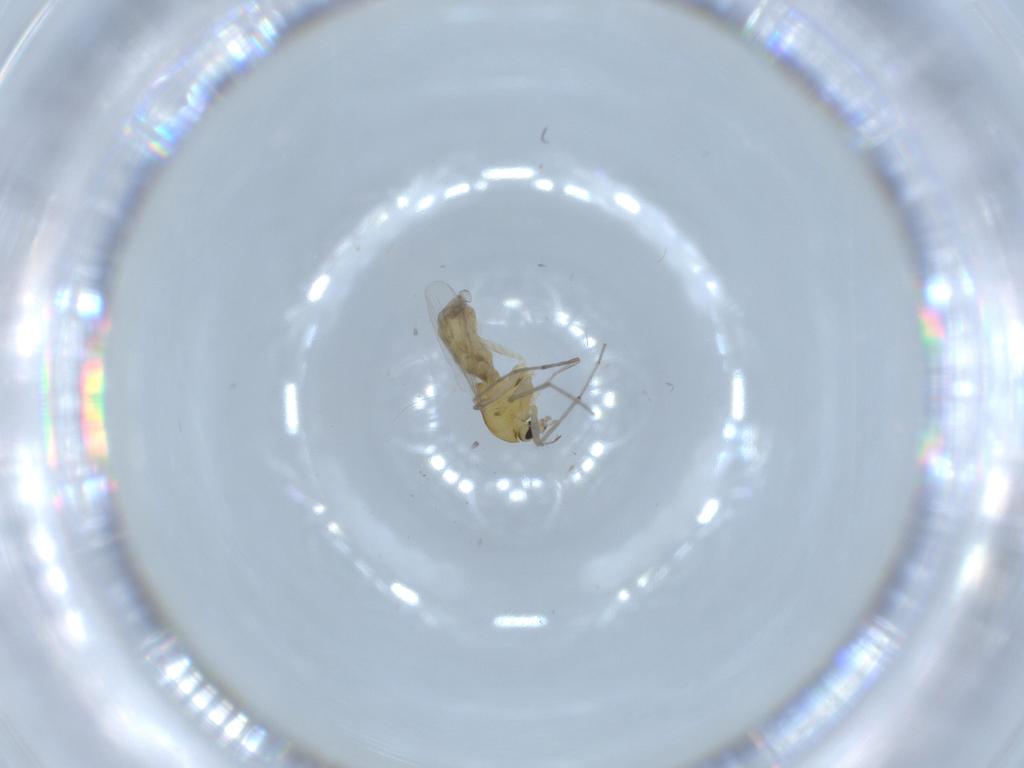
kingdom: Animalia
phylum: Arthropoda
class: Insecta
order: Diptera
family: Chironomidae
